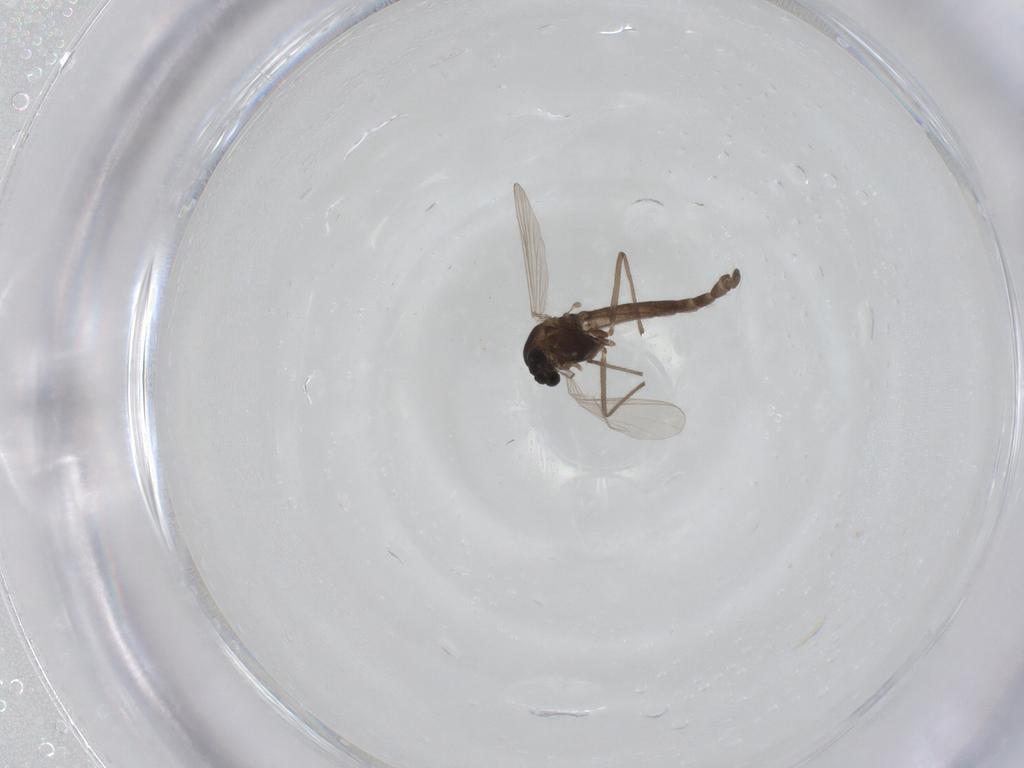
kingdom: Animalia
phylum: Arthropoda
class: Insecta
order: Diptera
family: Chironomidae
